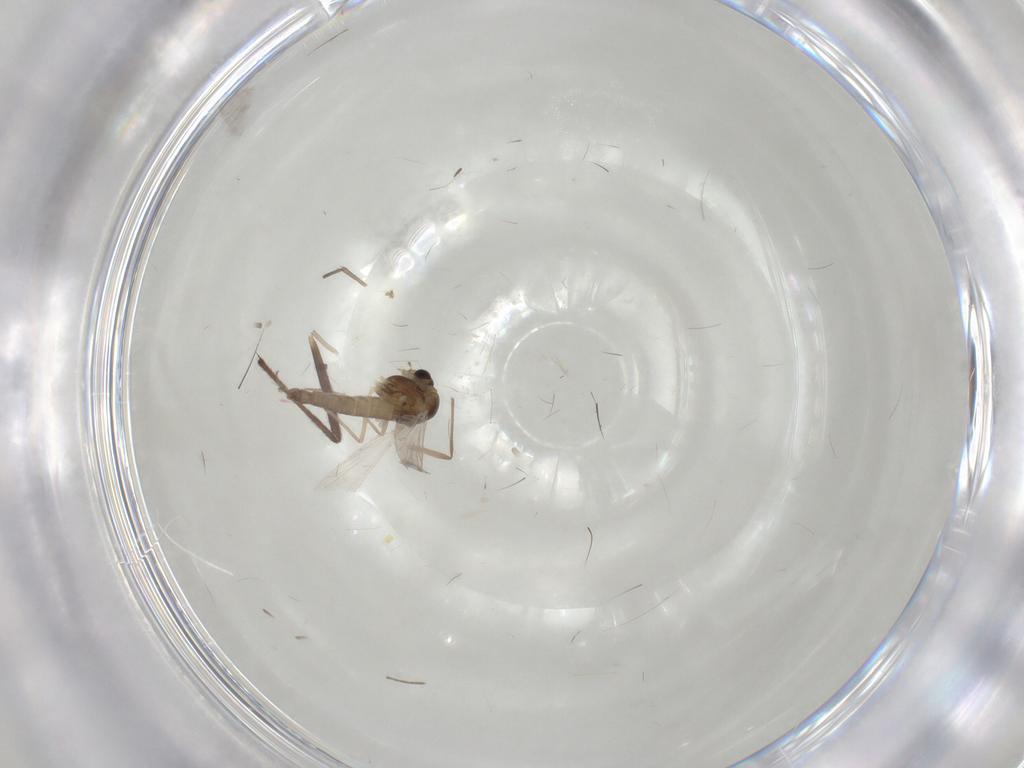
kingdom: Animalia
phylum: Arthropoda
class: Insecta
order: Diptera
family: Chironomidae
